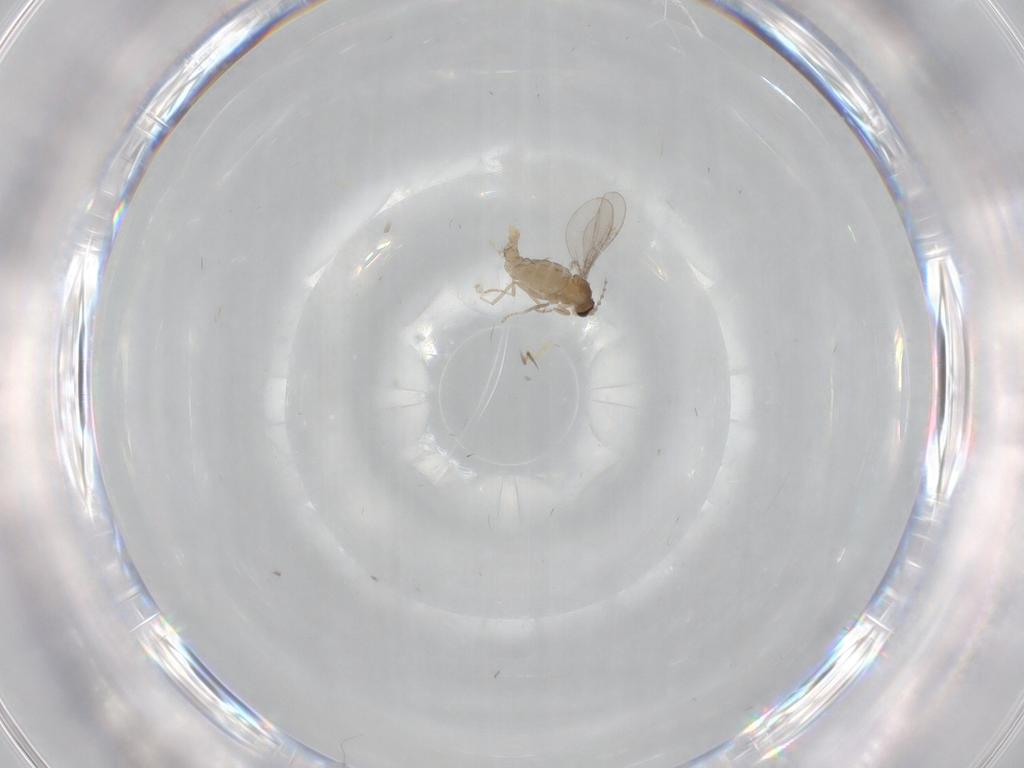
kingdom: Animalia
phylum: Arthropoda
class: Insecta
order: Diptera
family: Cecidomyiidae
